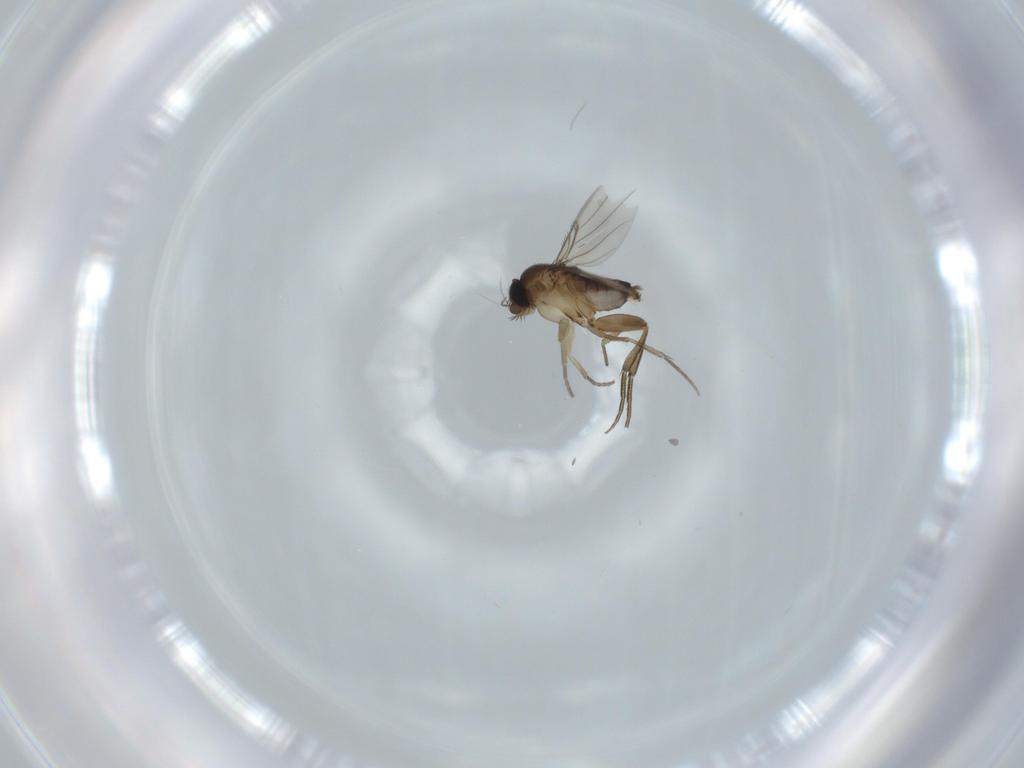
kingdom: Animalia
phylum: Arthropoda
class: Insecta
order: Diptera
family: Phoridae
